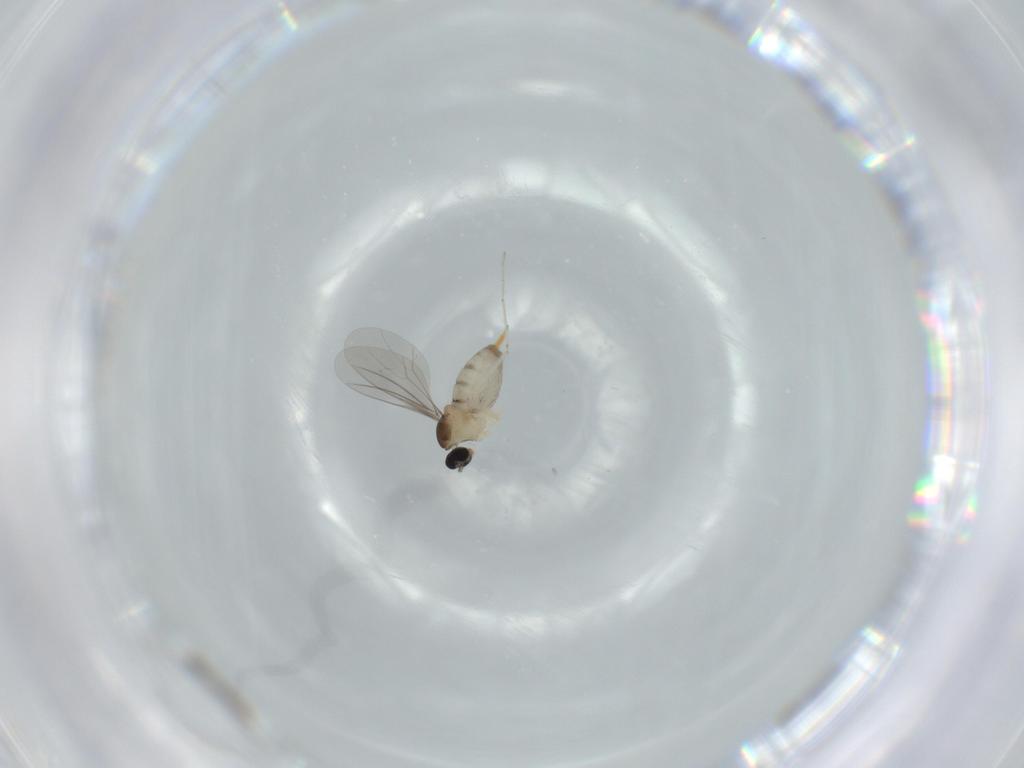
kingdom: Animalia
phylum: Arthropoda
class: Insecta
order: Diptera
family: Cecidomyiidae
